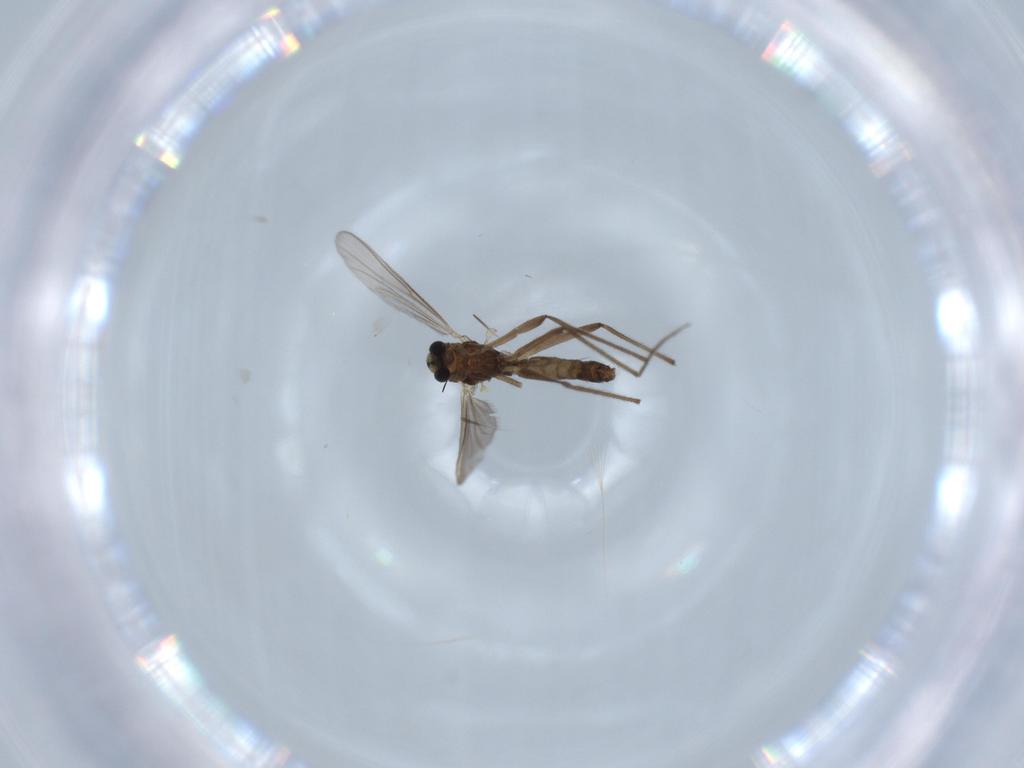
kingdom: Animalia
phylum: Arthropoda
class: Insecta
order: Diptera
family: Chironomidae
